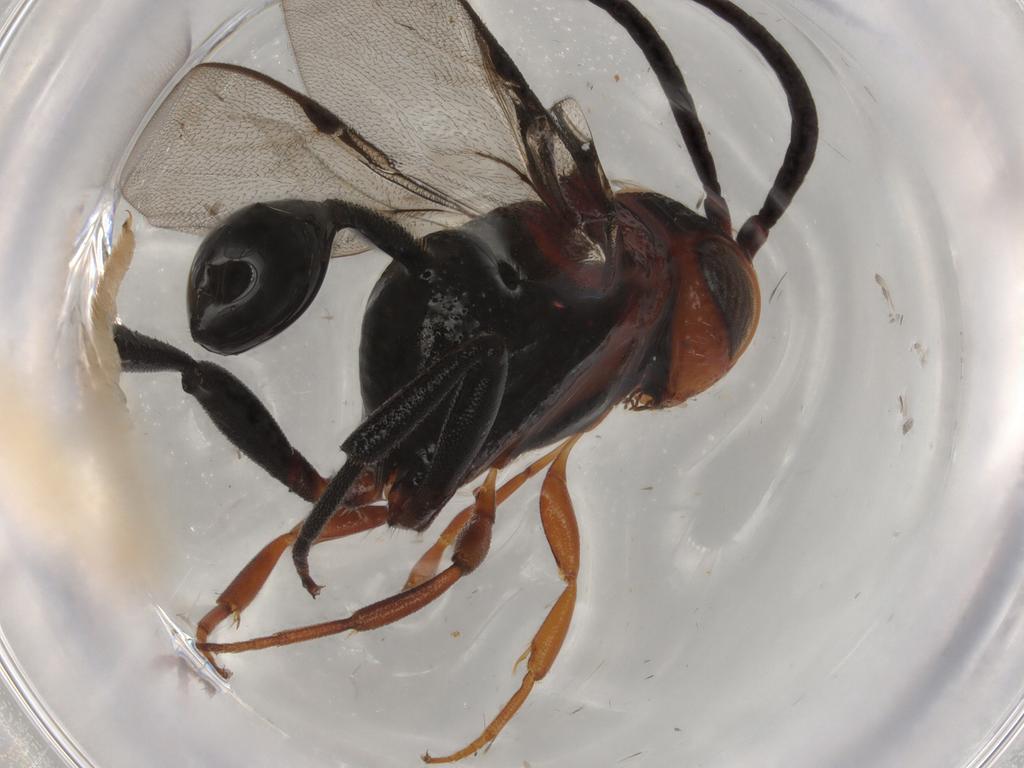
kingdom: Animalia
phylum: Arthropoda
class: Insecta
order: Hymenoptera
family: Evaniidae
